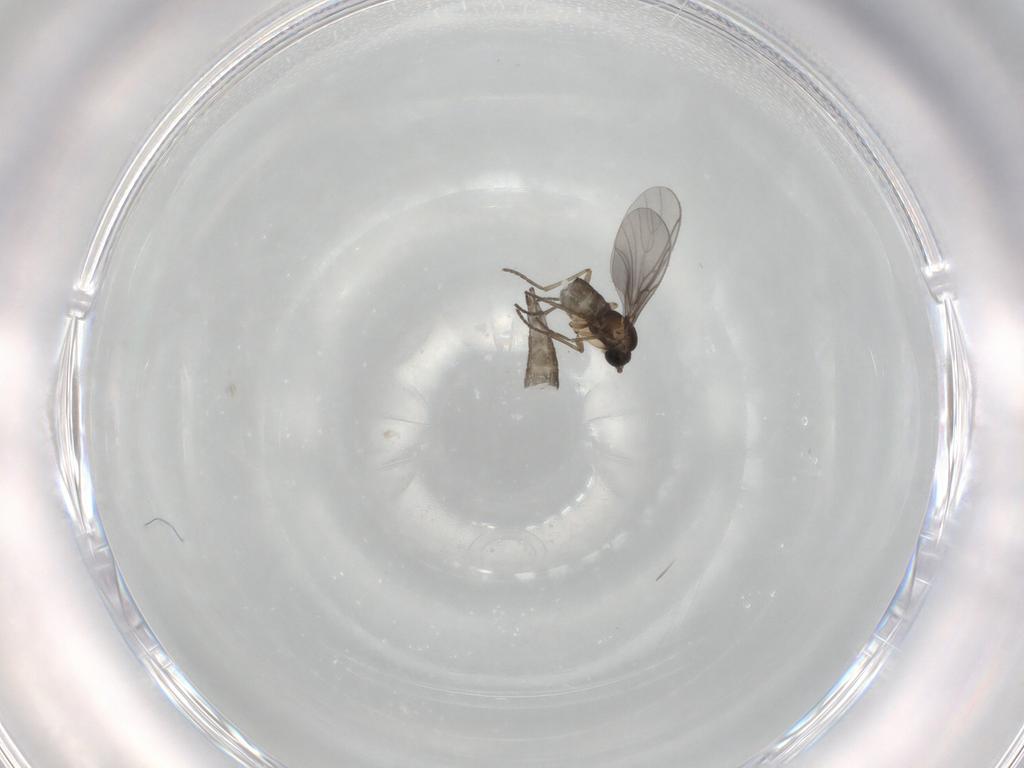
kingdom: Animalia
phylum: Arthropoda
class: Insecta
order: Diptera
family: Sciaridae
